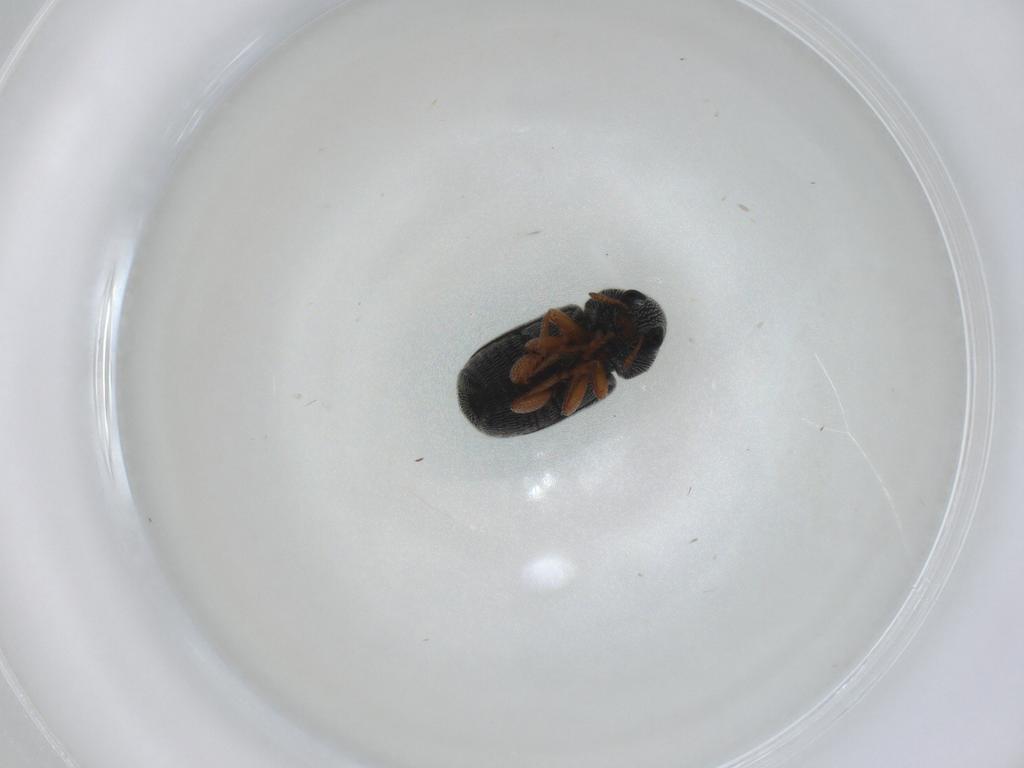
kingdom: Animalia
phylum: Arthropoda
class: Insecta
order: Coleoptera
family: Anthribidae
